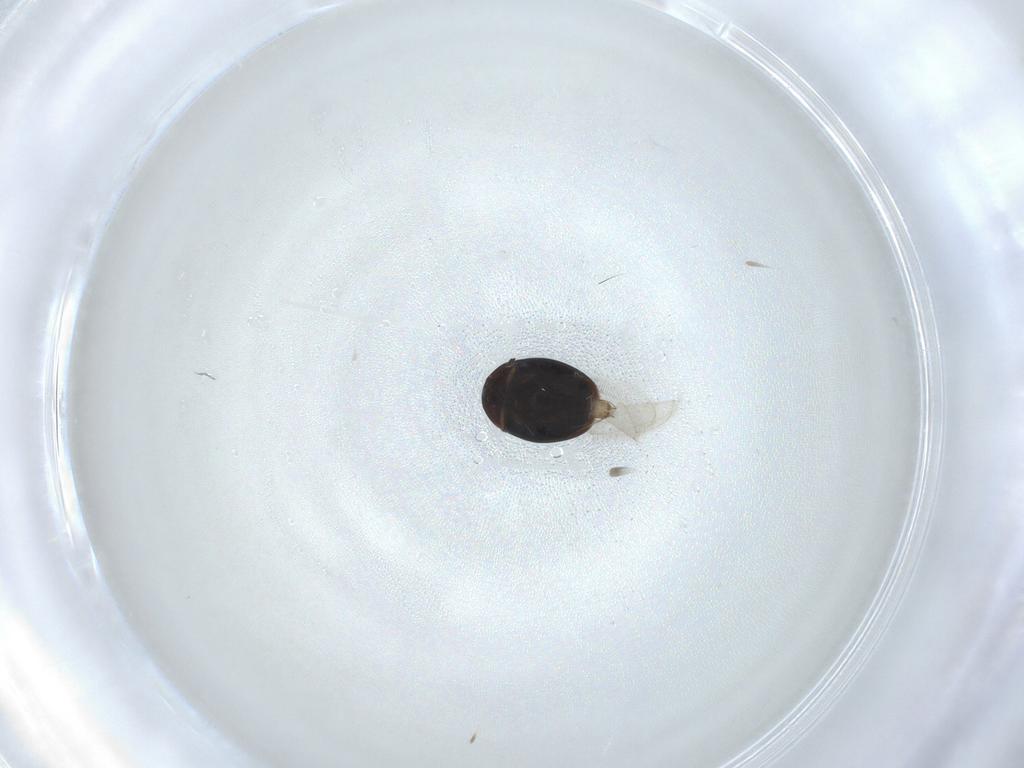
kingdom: Animalia
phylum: Arthropoda
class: Insecta
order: Coleoptera
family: Corylophidae
